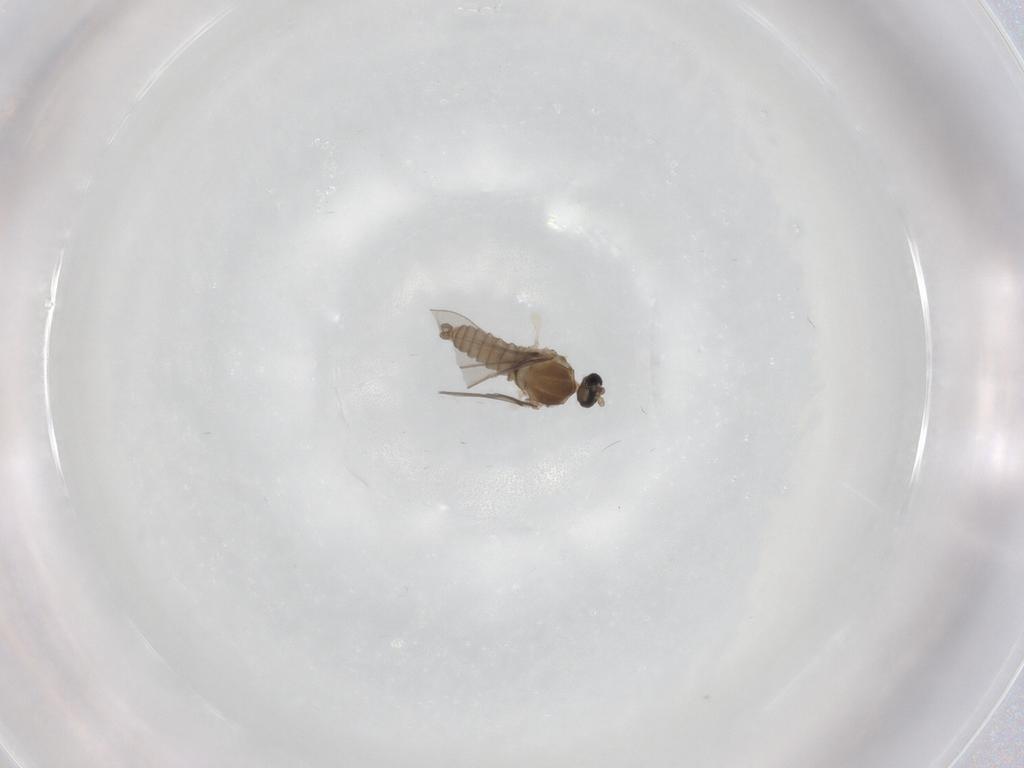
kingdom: Animalia
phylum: Arthropoda
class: Insecta
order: Diptera
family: Cecidomyiidae
